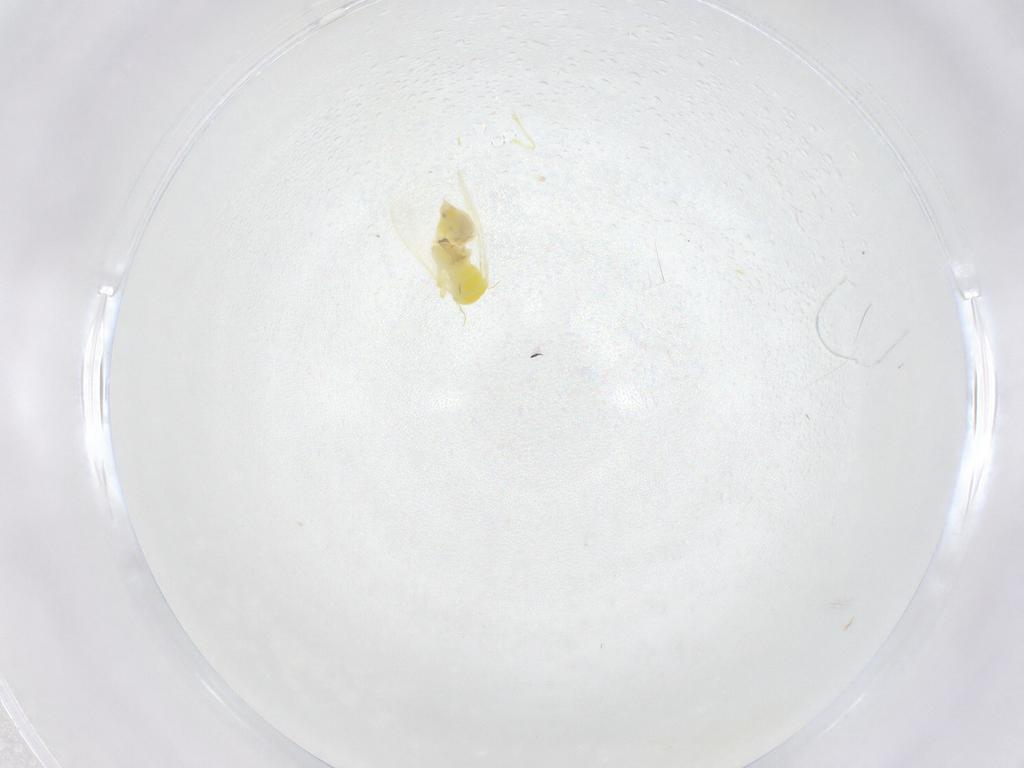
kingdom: Animalia
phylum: Arthropoda
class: Insecta
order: Hemiptera
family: Aleyrodidae
